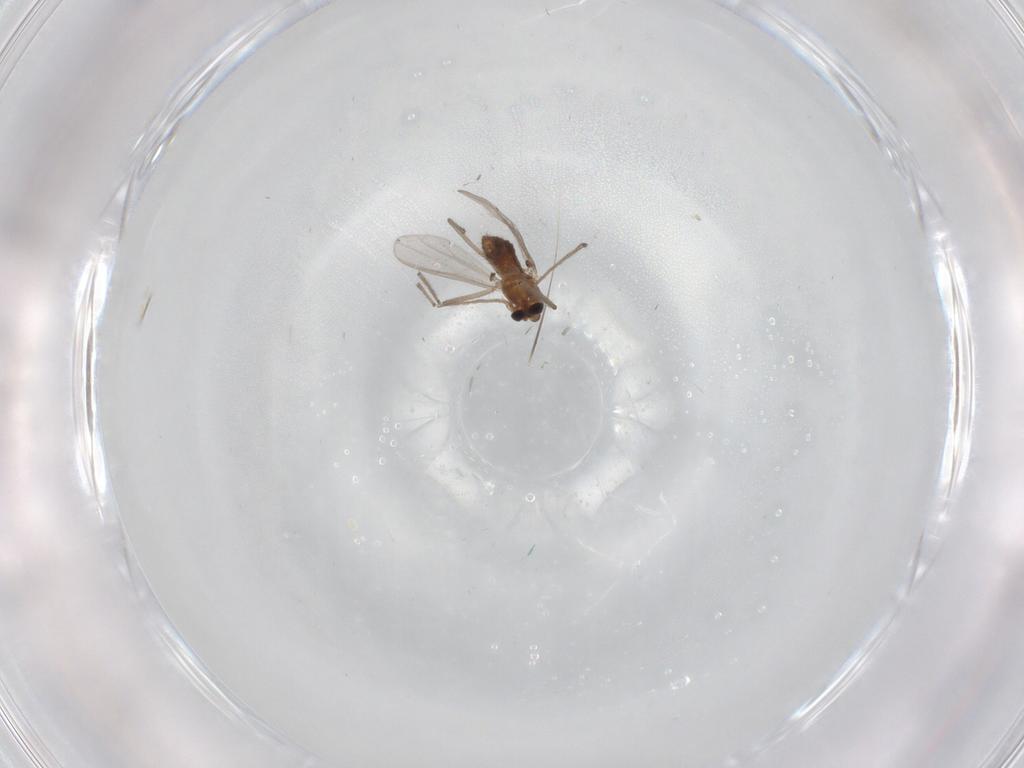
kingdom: Animalia
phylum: Arthropoda
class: Insecta
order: Diptera
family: Chironomidae
